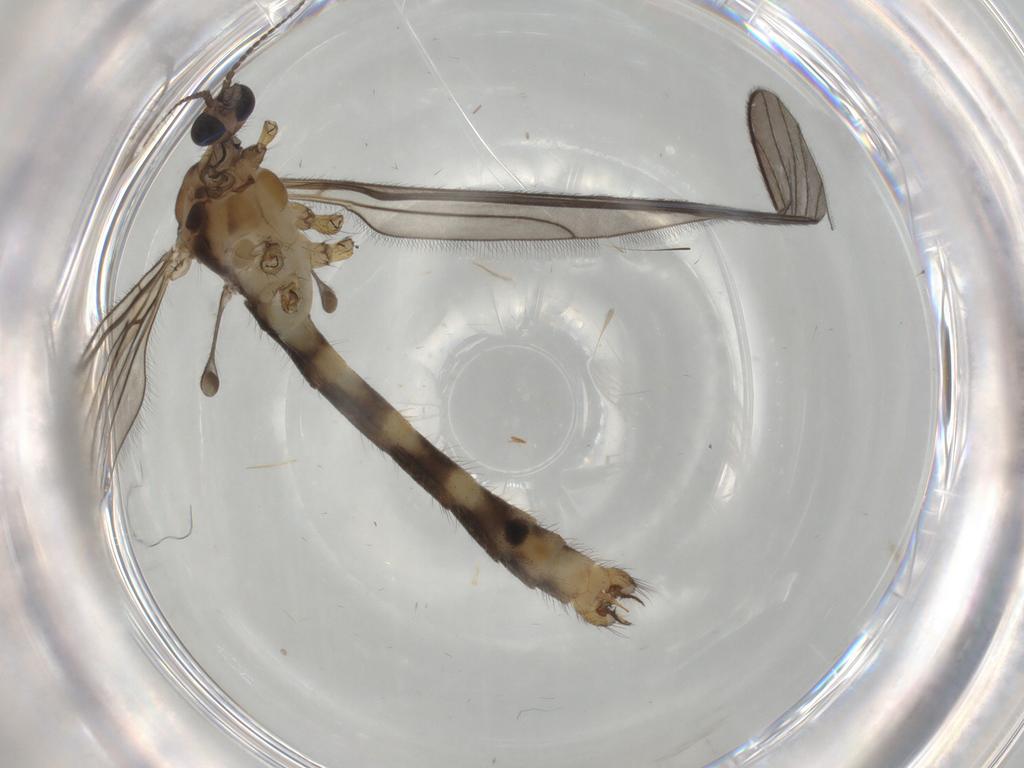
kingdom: Animalia
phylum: Arthropoda
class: Insecta
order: Diptera
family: Limoniidae
